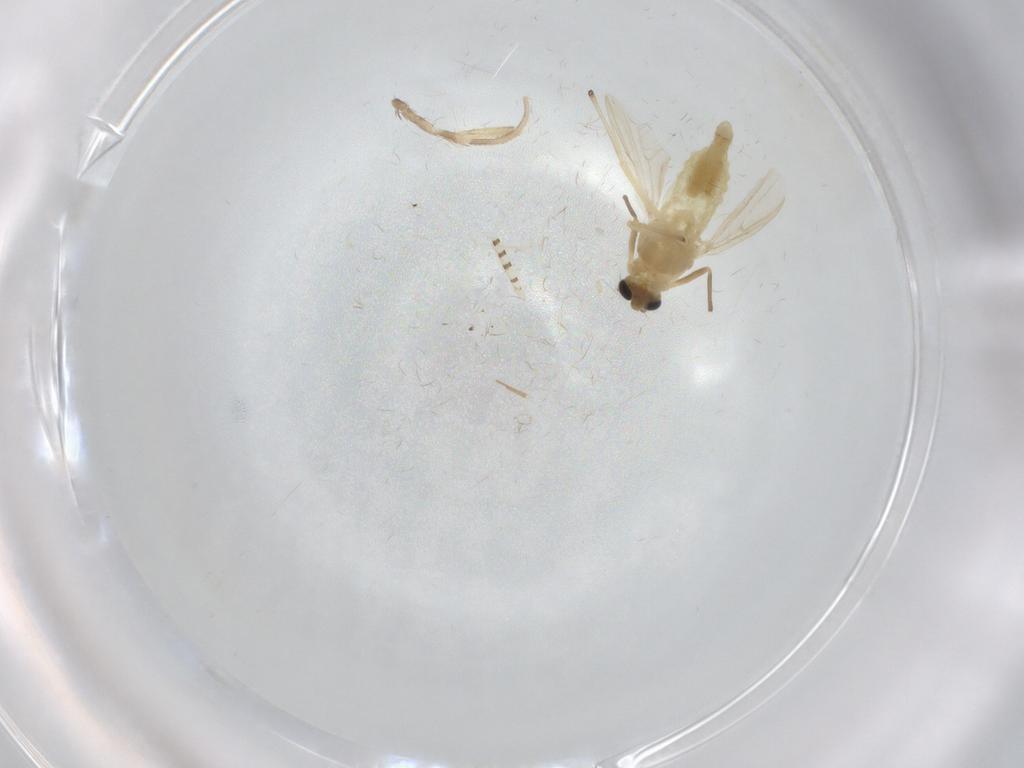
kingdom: Animalia
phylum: Arthropoda
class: Insecta
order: Diptera
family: Chironomidae
